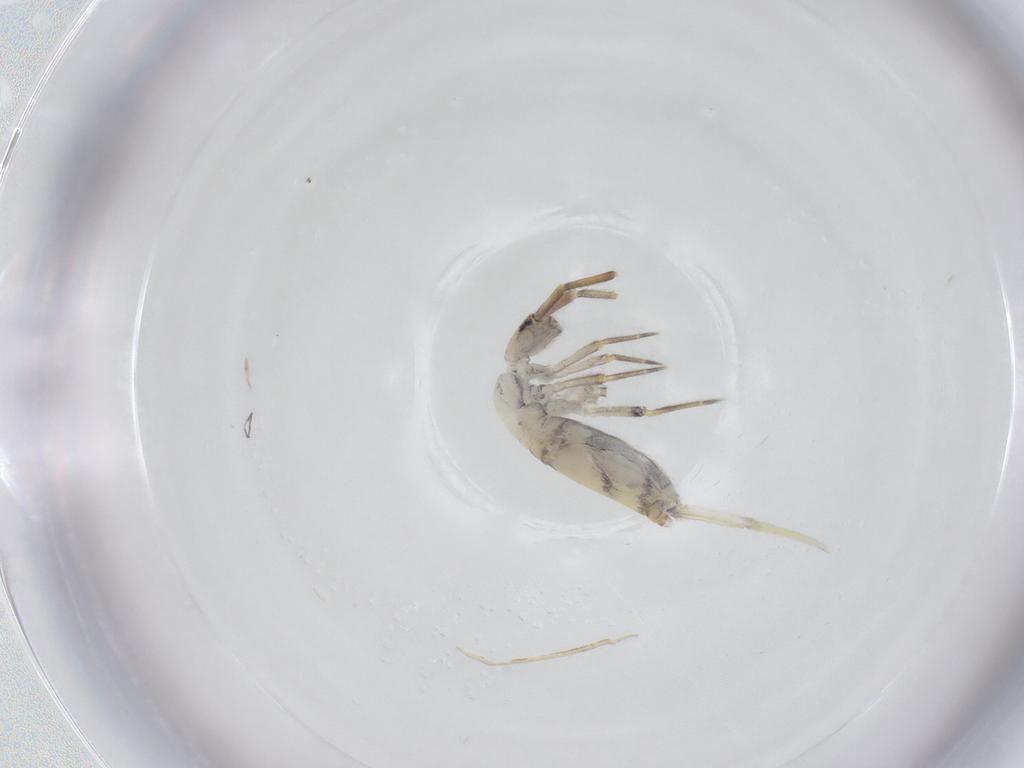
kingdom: Animalia
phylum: Arthropoda
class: Collembola
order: Entomobryomorpha
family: Entomobryidae
